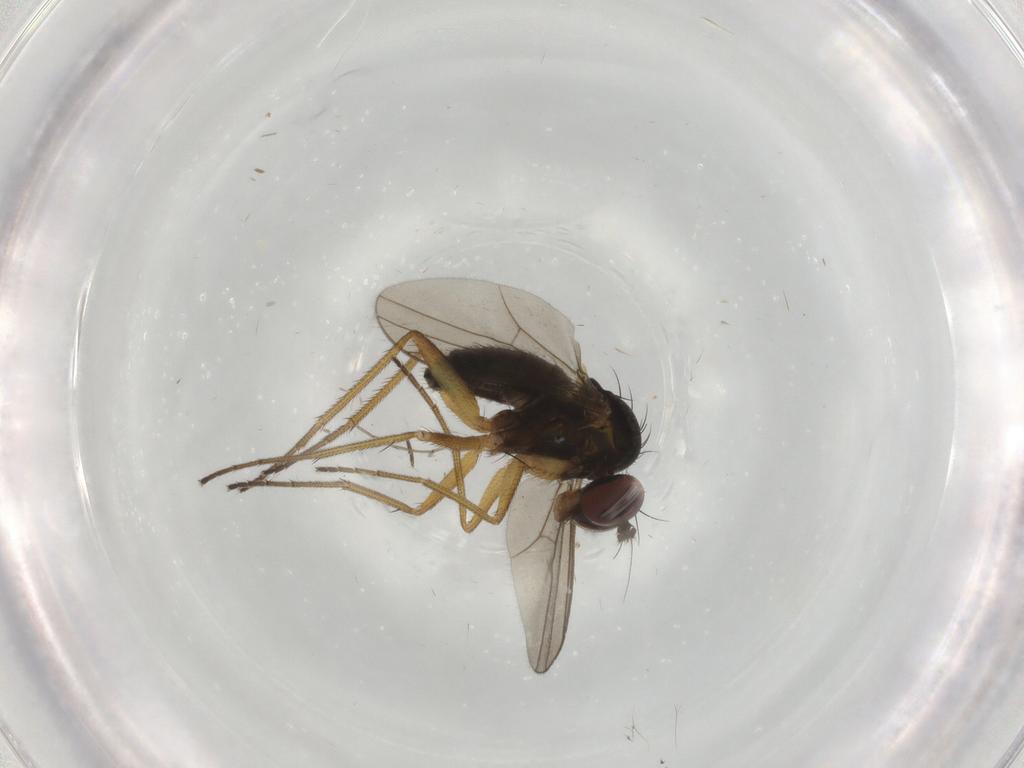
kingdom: Animalia
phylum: Arthropoda
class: Insecta
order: Diptera
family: Dolichopodidae
